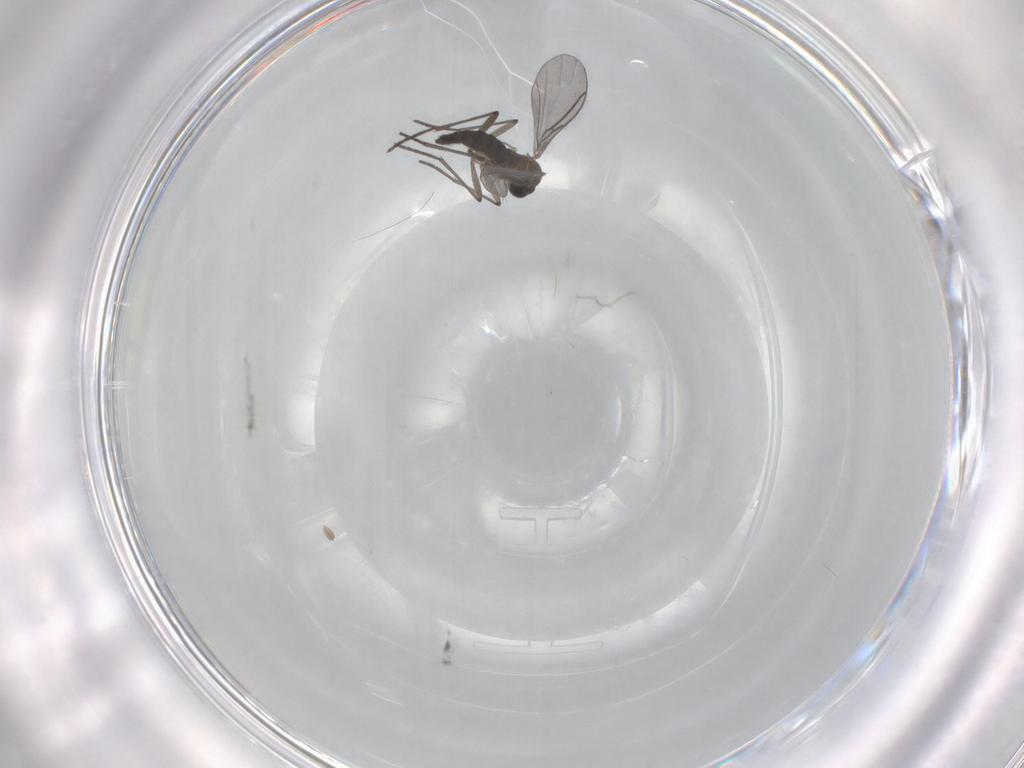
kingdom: Animalia
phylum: Arthropoda
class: Insecta
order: Diptera
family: Sciaridae
